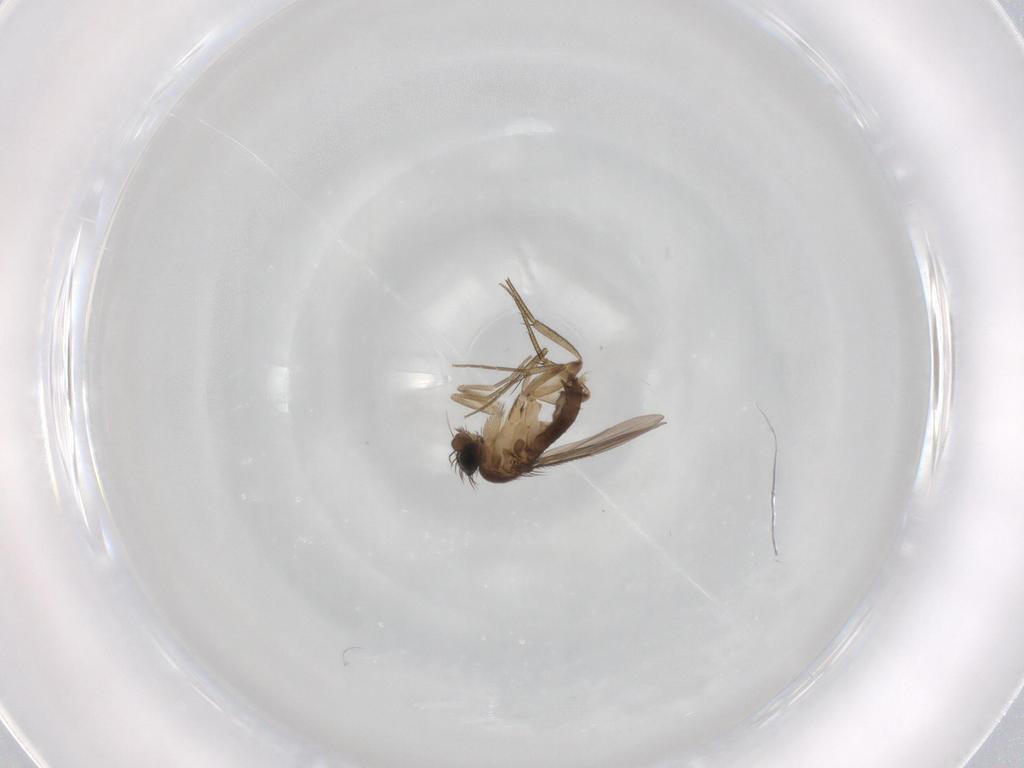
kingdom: Animalia
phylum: Arthropoda
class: Insecta
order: Diptera
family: Phoridae
